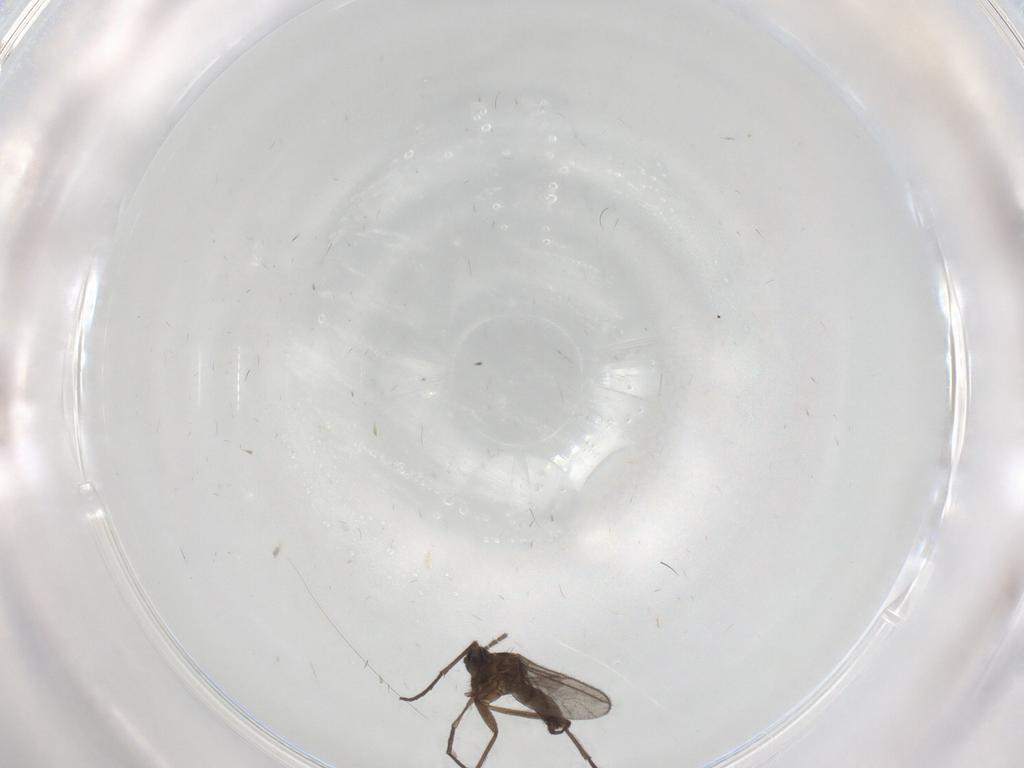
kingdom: Animalia
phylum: Arthropoda
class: Insecta
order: Diptera
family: Sciaridae
